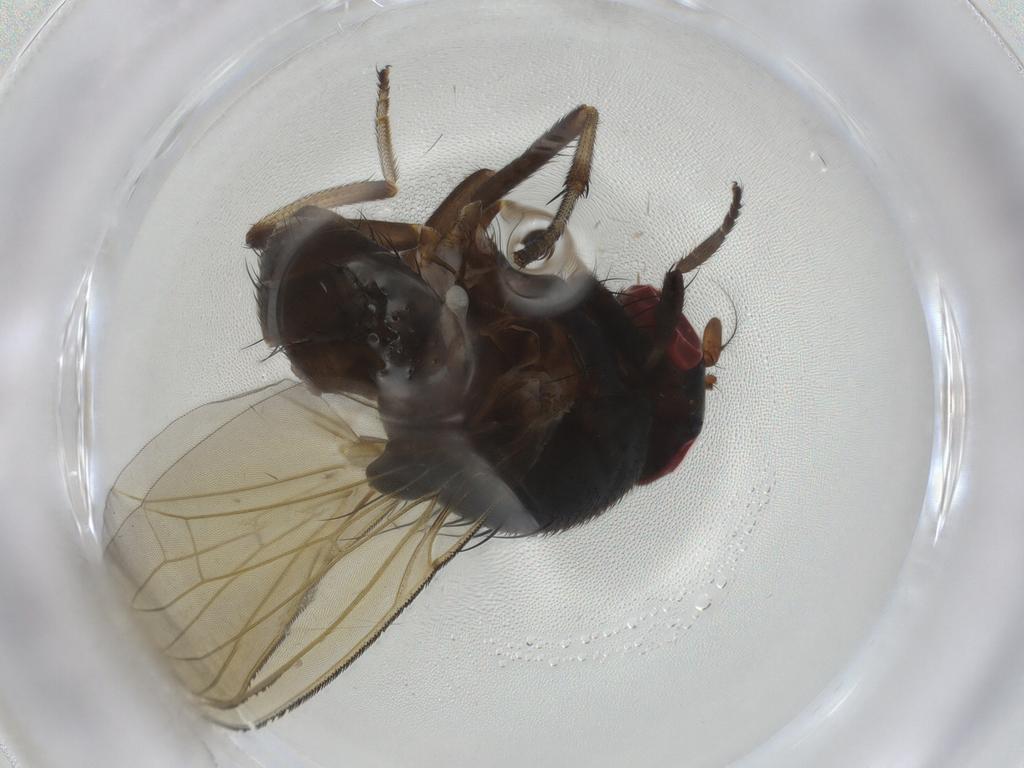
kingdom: Animalia
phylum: Arthropoda
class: Insecta
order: Diptera
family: Lauxaniidae
